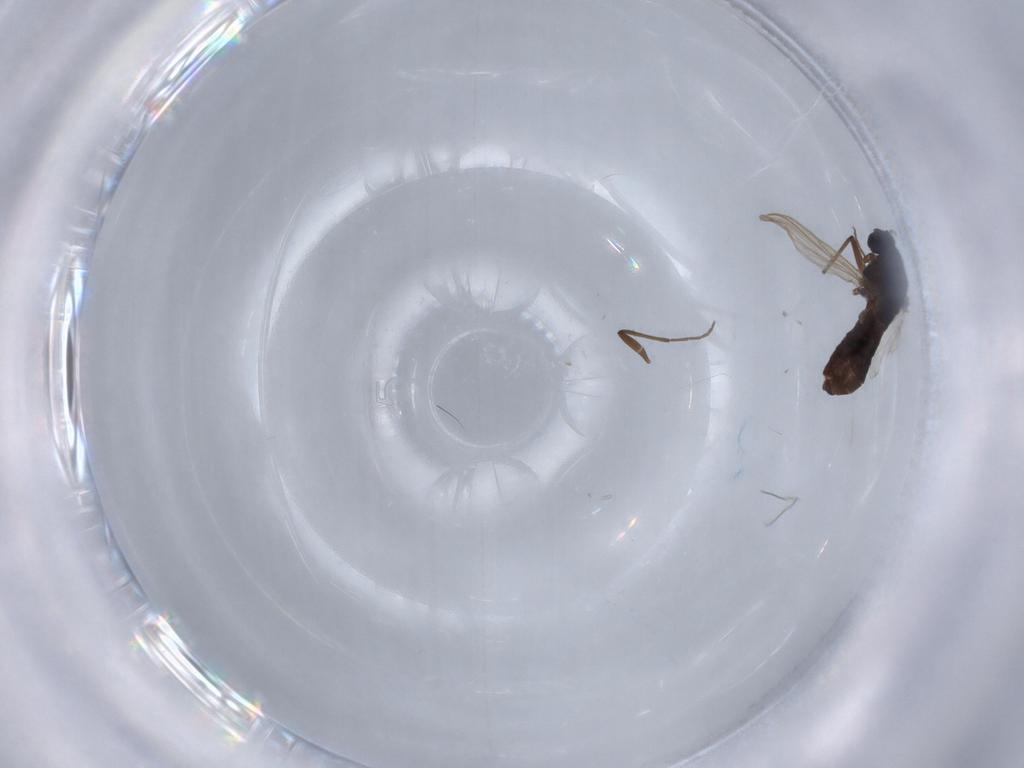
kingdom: Animalia
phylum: Arthropoda
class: Insecta
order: Diptera
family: Chironomidae
